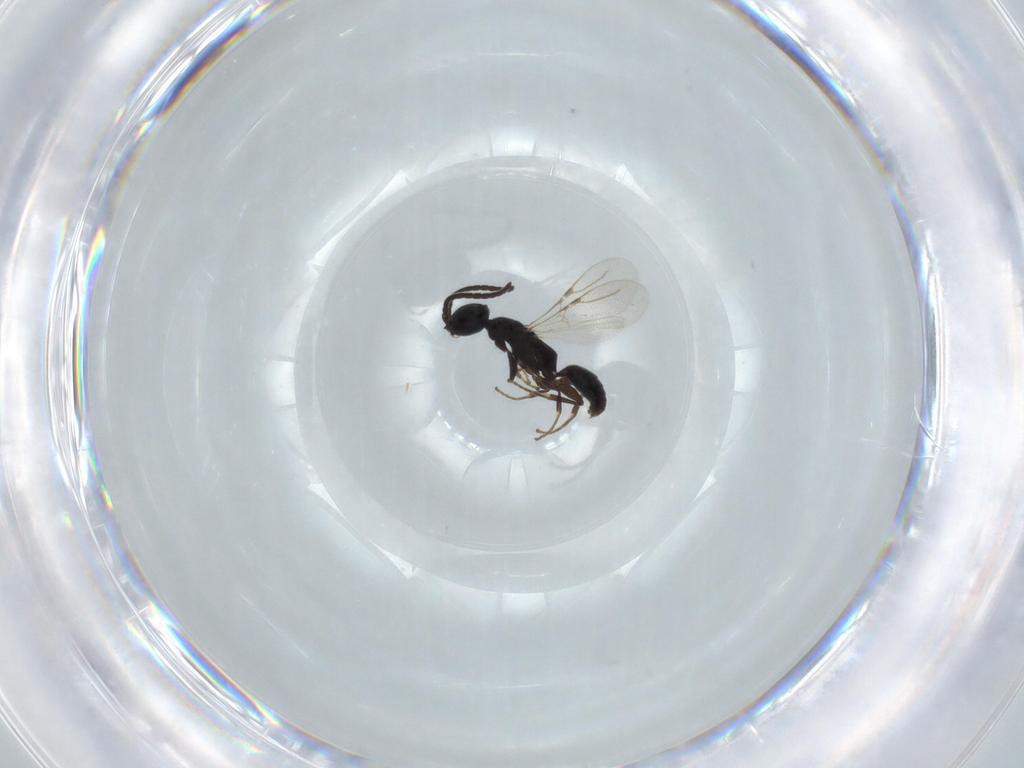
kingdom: Animalia
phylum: Arthropoda
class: Insecta
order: Hymenoptera
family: Bethylidae
